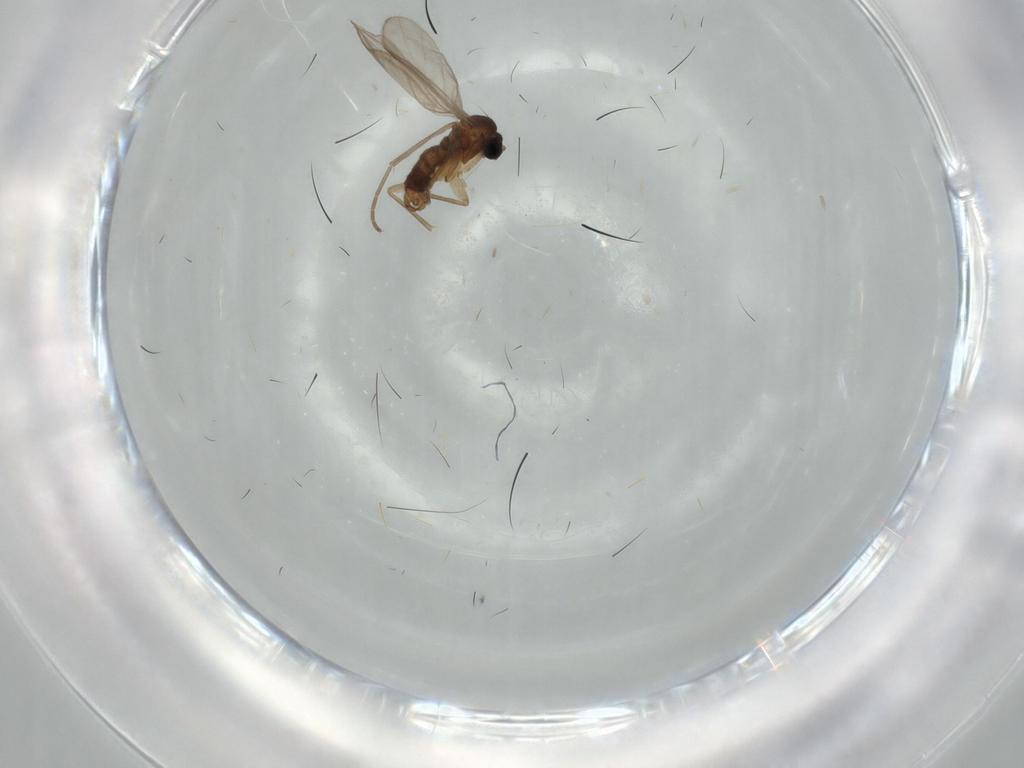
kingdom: Animalia
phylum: Arthropoda
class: Insecta
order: Diptera
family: Sciaridae
